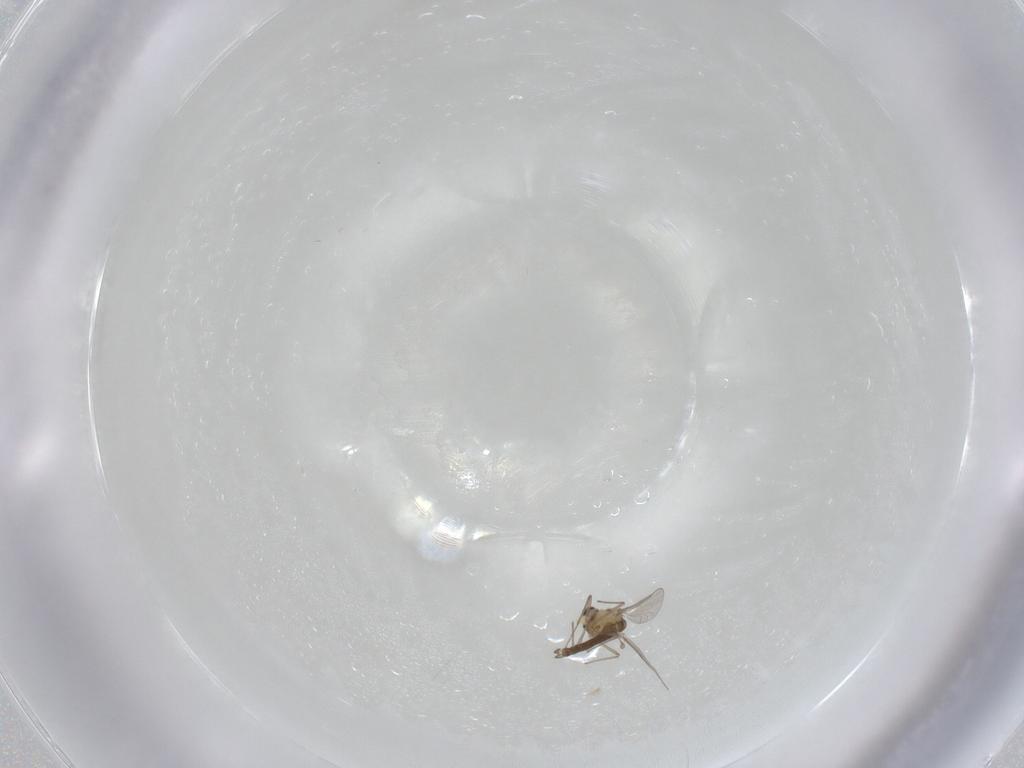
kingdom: Animalia
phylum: Arthropoda
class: Insecta
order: Diptera
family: Chironomidae
